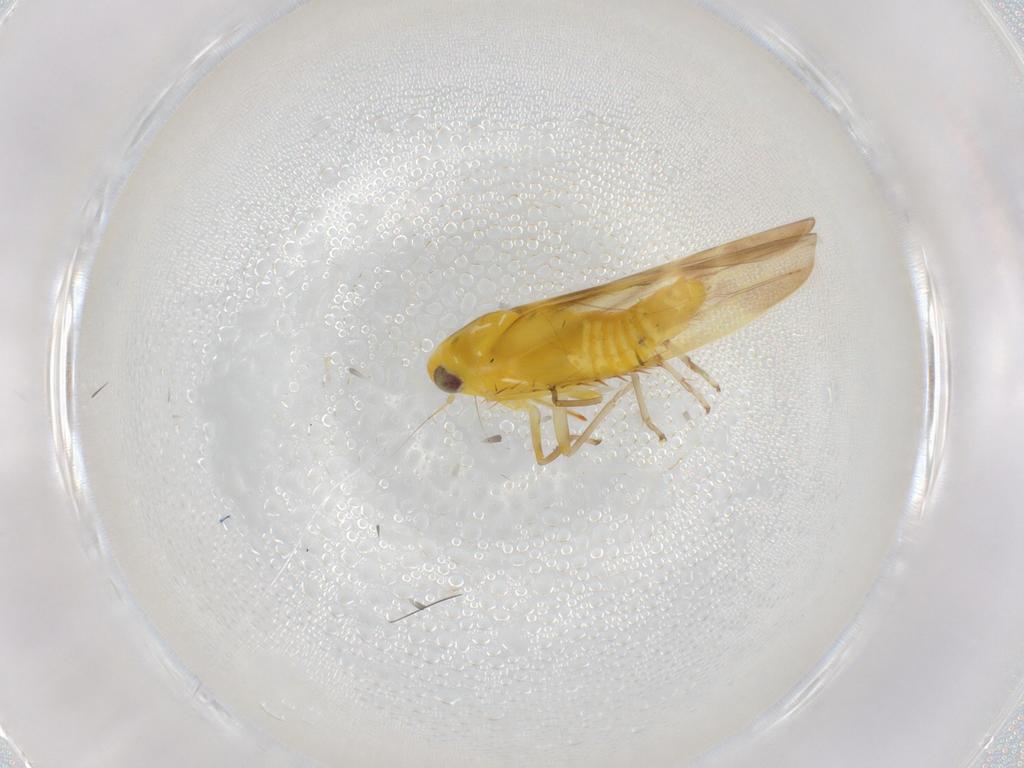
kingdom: Animalia
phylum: Arthropoda
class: Insecta
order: Hemiptera
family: Cicadellidae
